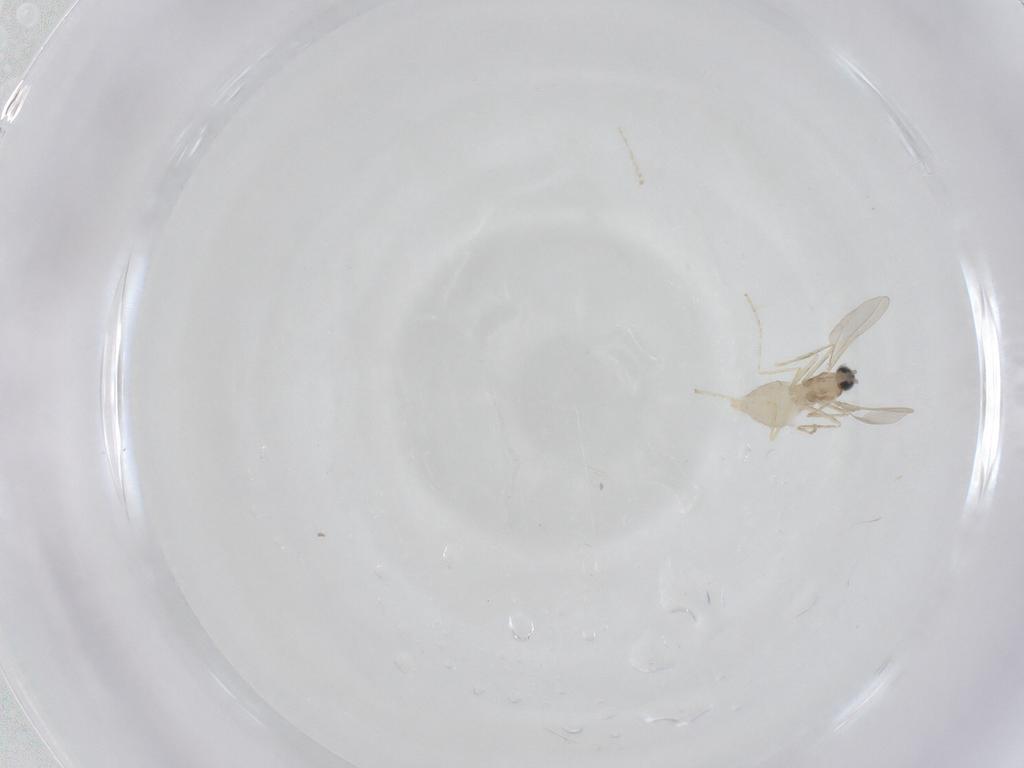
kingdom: Animalia
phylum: Arthropoda
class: Insecta
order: Diptera
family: Cecidomyiidae
